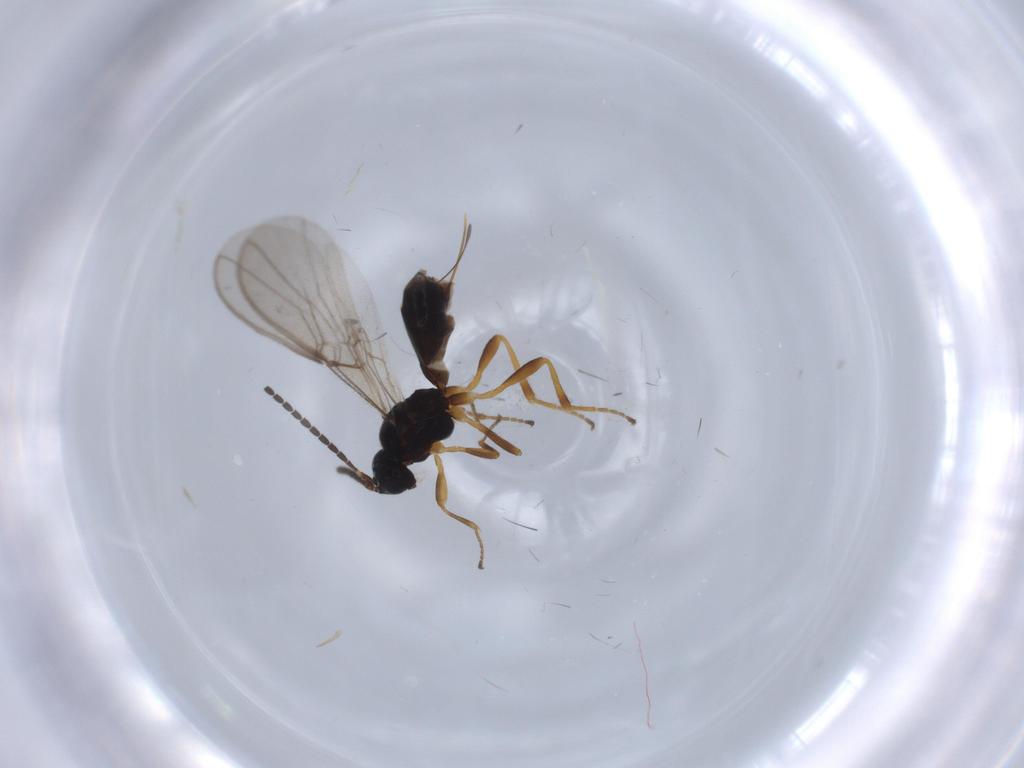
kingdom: Animalia
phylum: Arthropoda
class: Insecta
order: Hymenoptera
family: Braconidae
